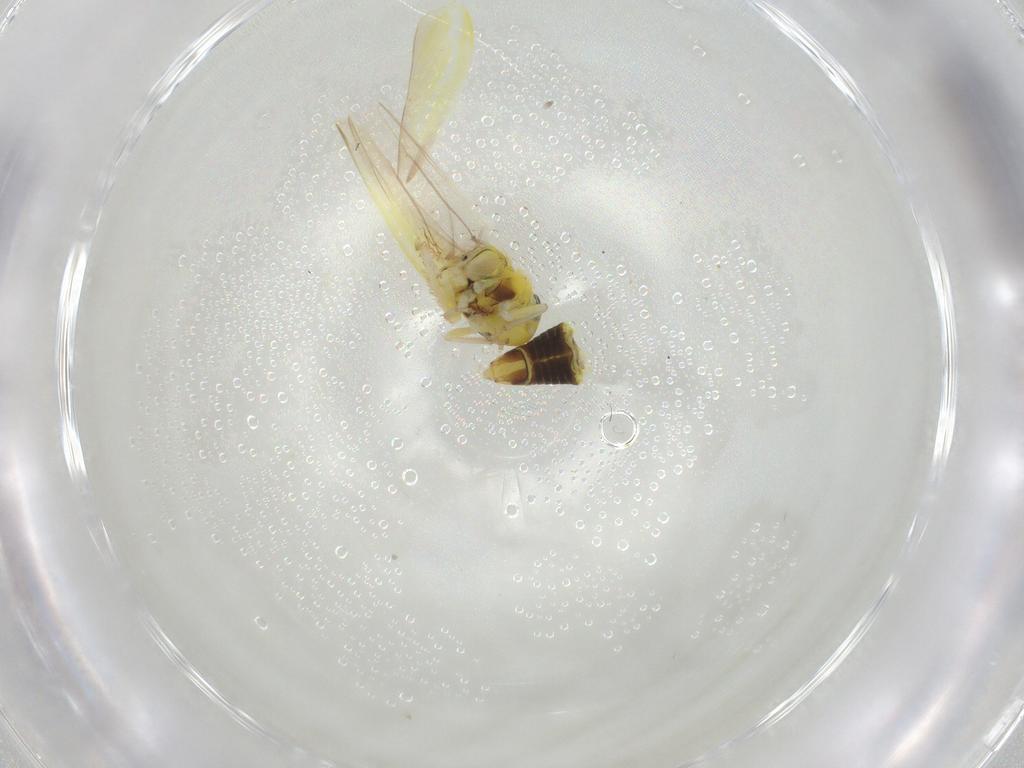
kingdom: Animalia
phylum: Arthropoda
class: Insecta
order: Hemiptera
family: Cicadellidae
